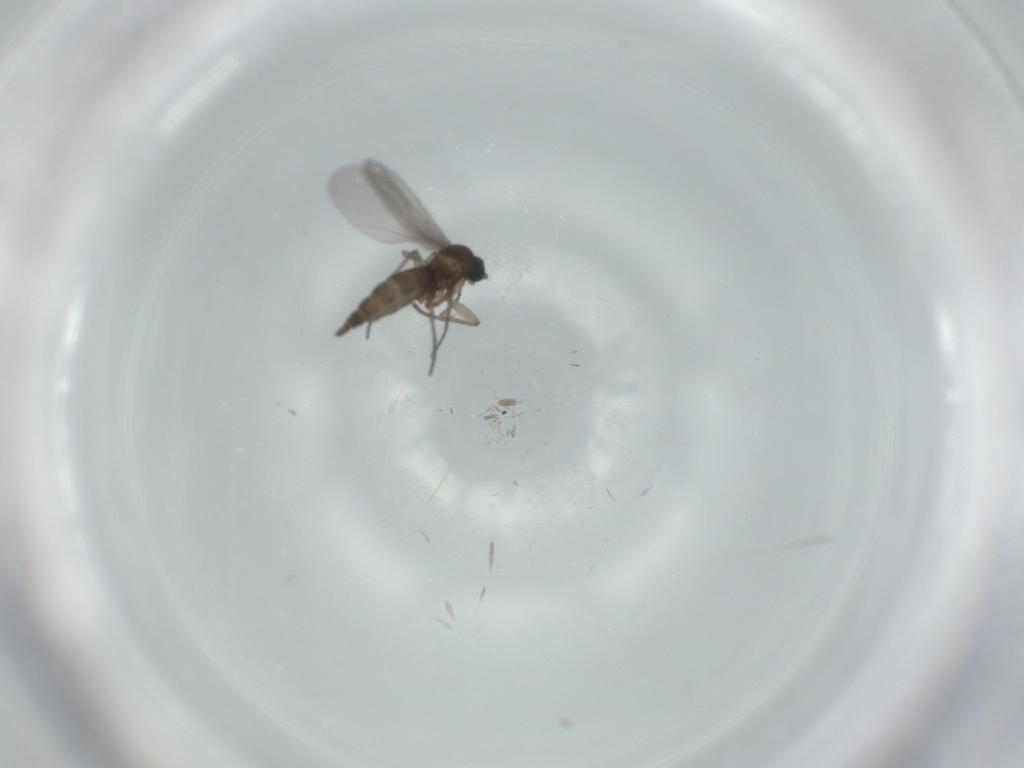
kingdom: Animalia
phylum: Arthropoda
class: Insecta
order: Diptera
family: Chironomidae
